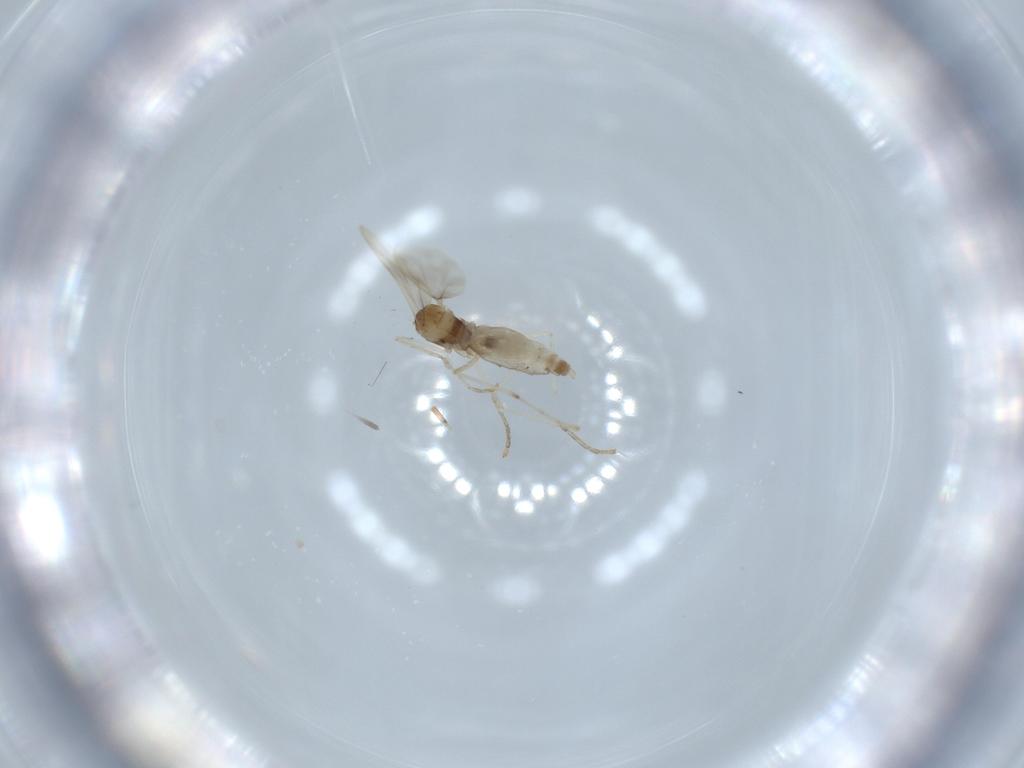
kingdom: Animalia
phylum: Arthropoda
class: Insecta
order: Diptera
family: Cecidomyiidae
